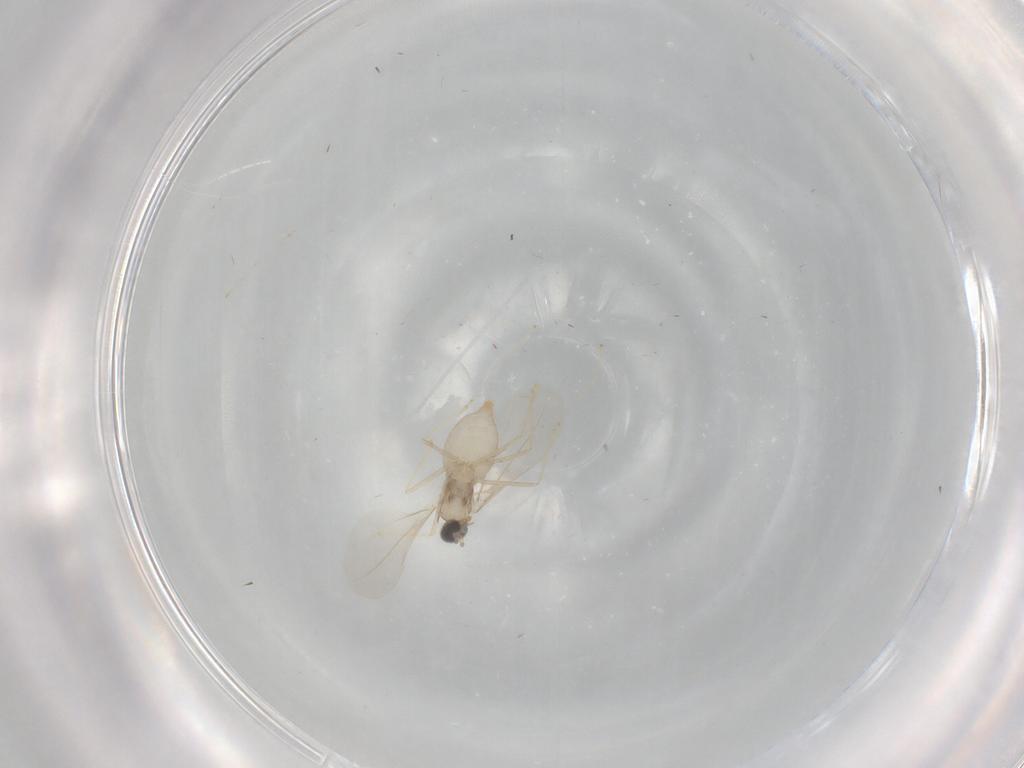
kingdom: Animalia
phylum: Arthropoda
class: Insecta
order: Diptera
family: Cecidomyiidae
